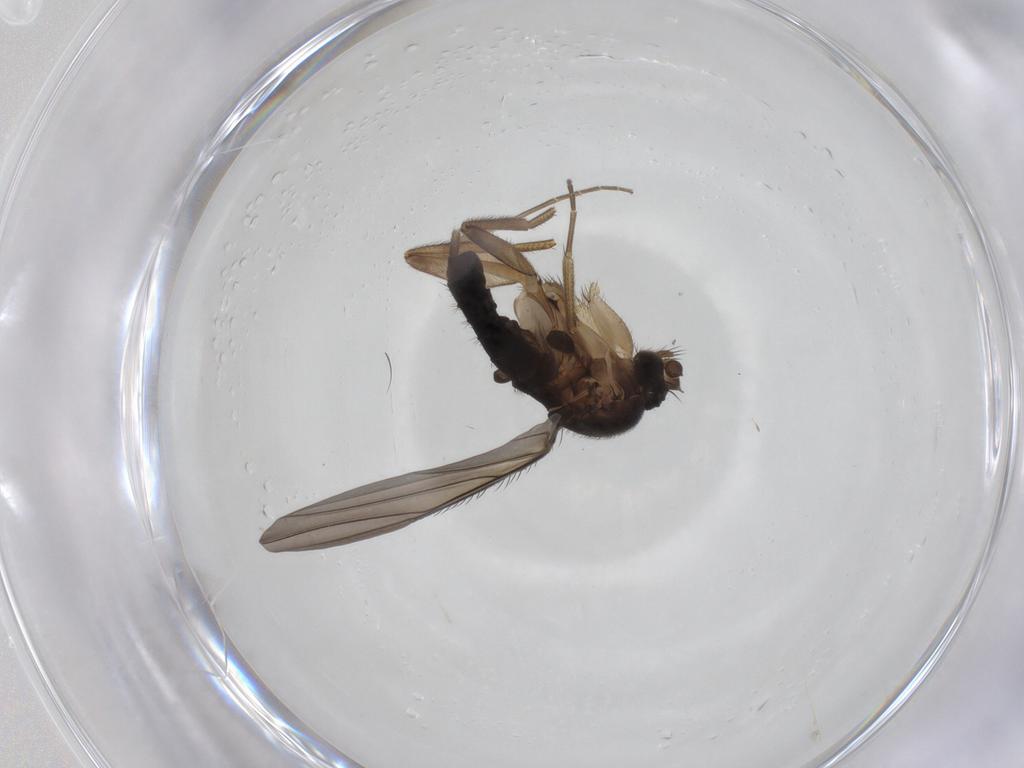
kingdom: Animalia
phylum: Arthropoda
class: Insecta
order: Diptera
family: Phoridae
